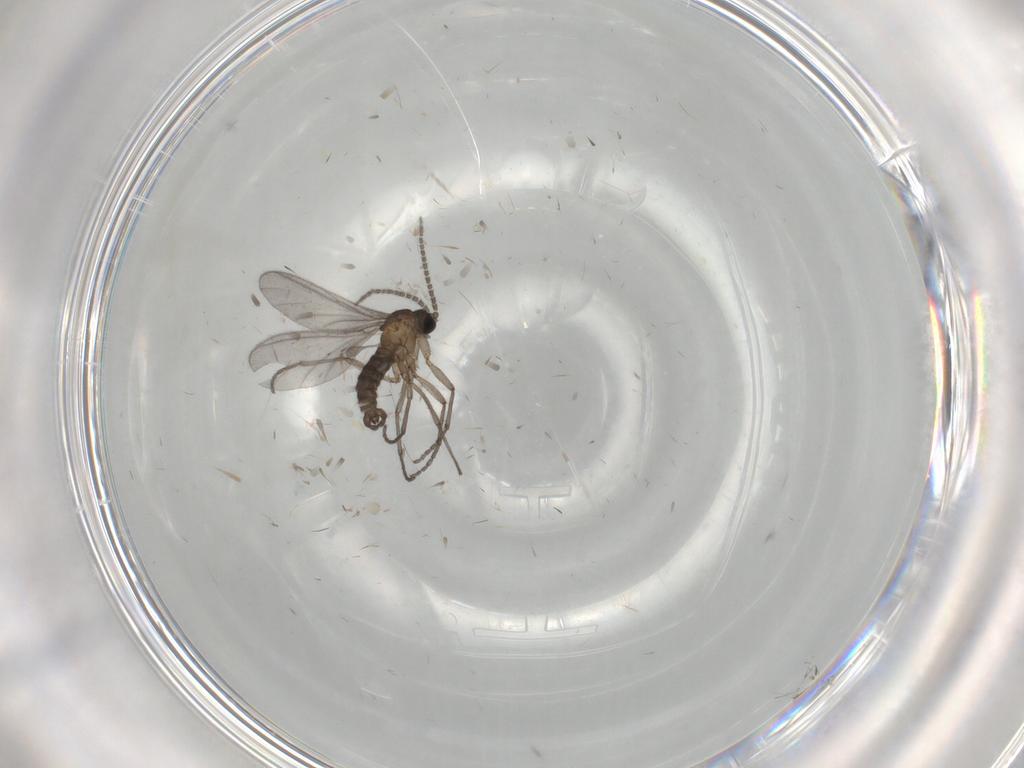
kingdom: Animalia
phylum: Arthropoda
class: Insecta
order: Diptera
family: Sciaridae
